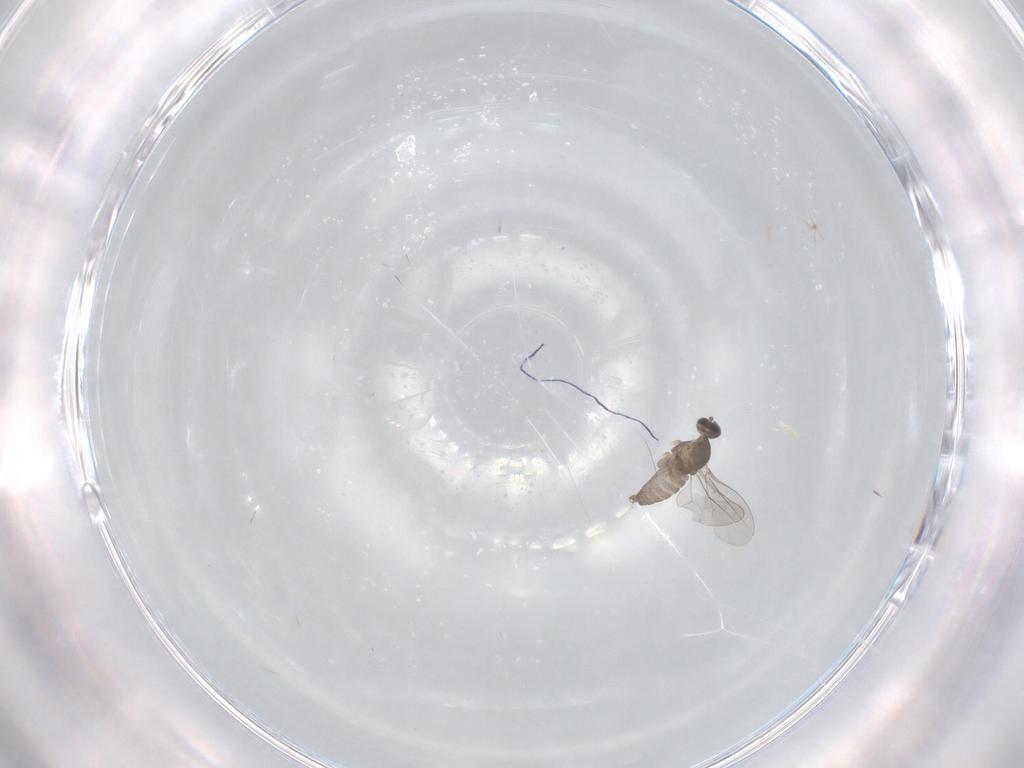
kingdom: Animalia
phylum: Arthropoda
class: Insecta
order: Diptera
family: Cecidomyiidae
